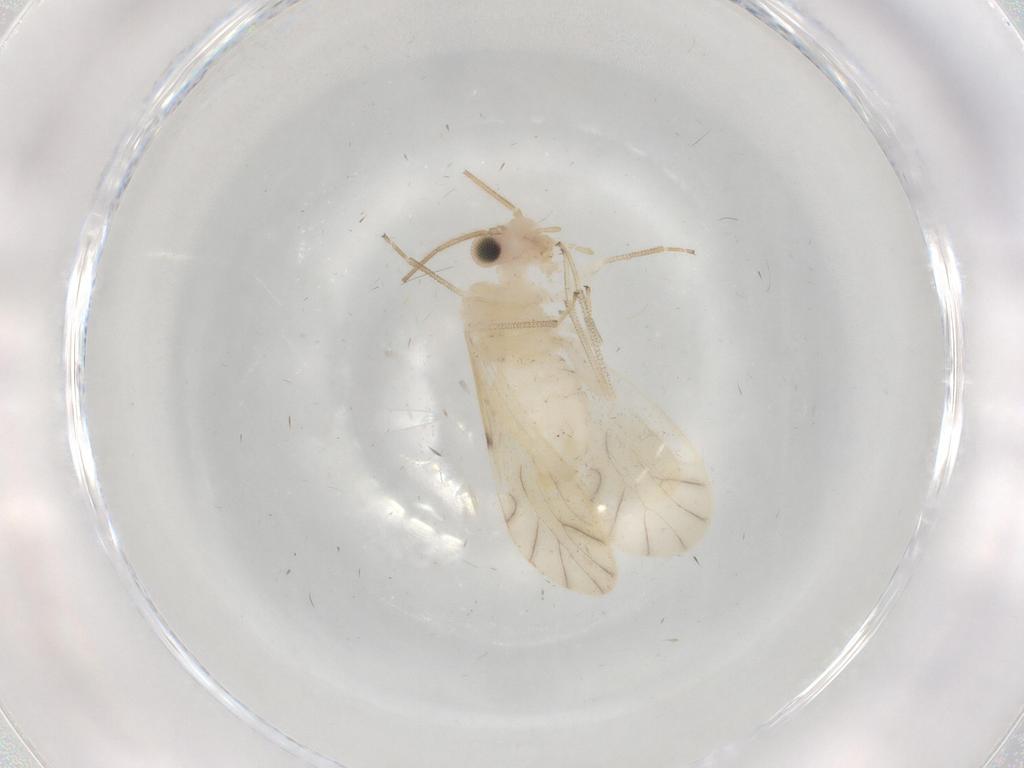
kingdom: Animalia
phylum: Arthropoda
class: Insecta
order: Psocodea
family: Caeciliusidae
